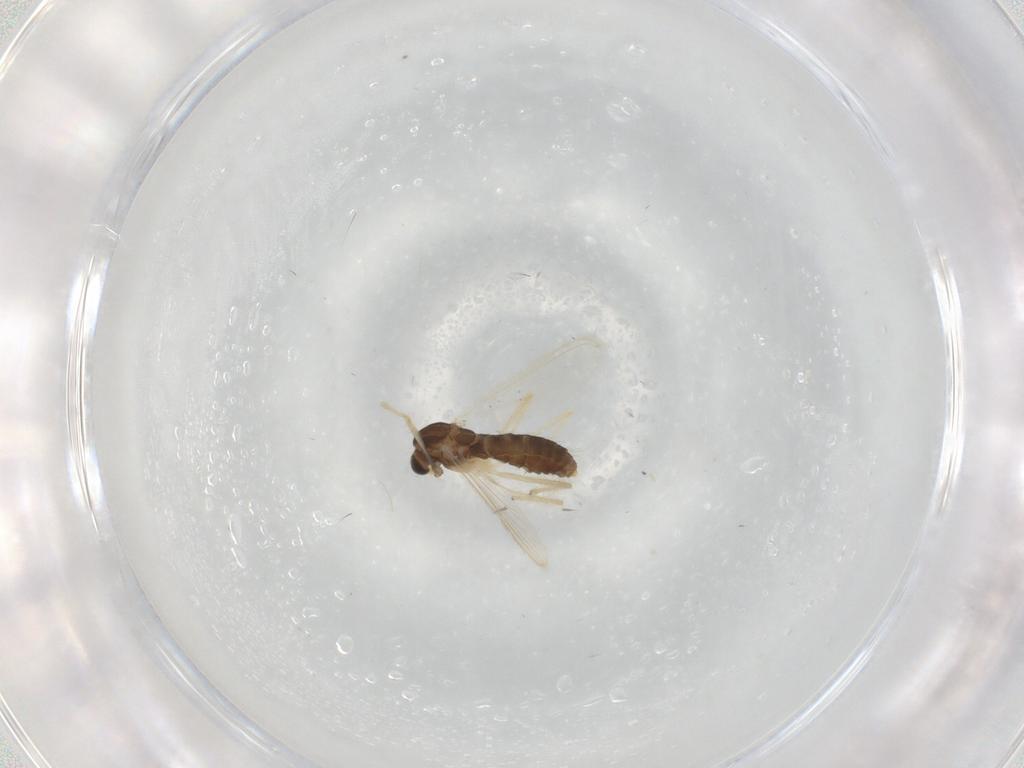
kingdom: Animalia
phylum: Arthropoda
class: Insecta
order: Diptera
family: Chironomidae
